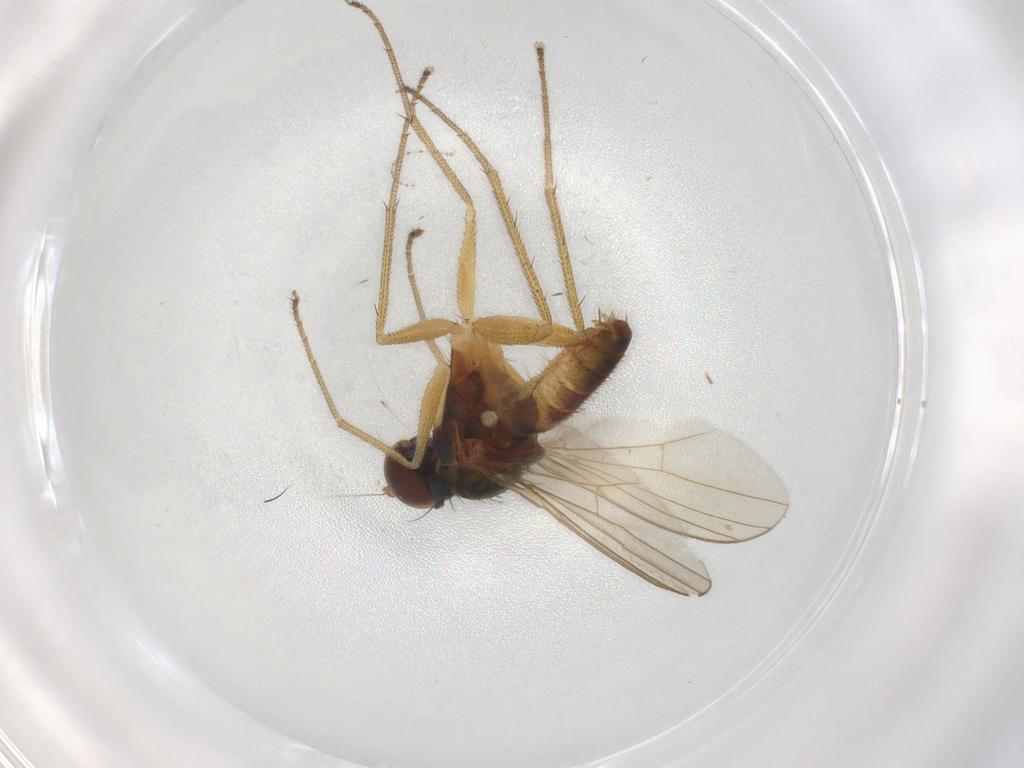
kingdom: Animalia
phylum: Arthropoda
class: Insecta
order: Diptera
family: Dolichopodidae
